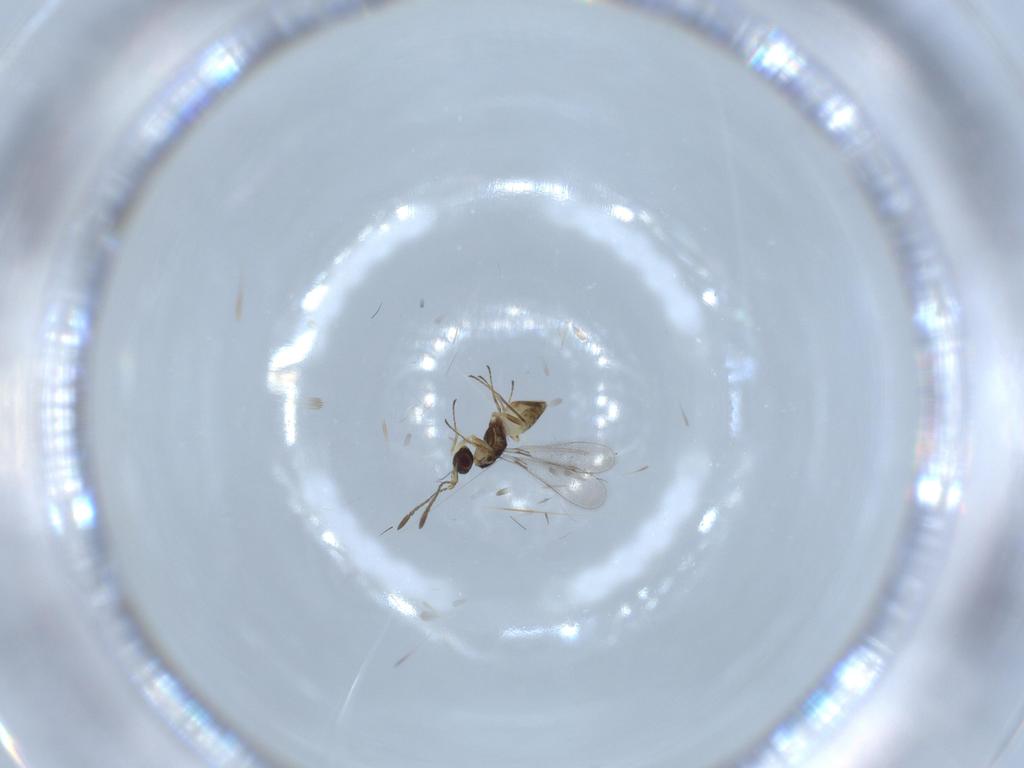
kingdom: Animalia
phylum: Arthropoda
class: Insecta
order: Hymenoptera
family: Mymaridae
